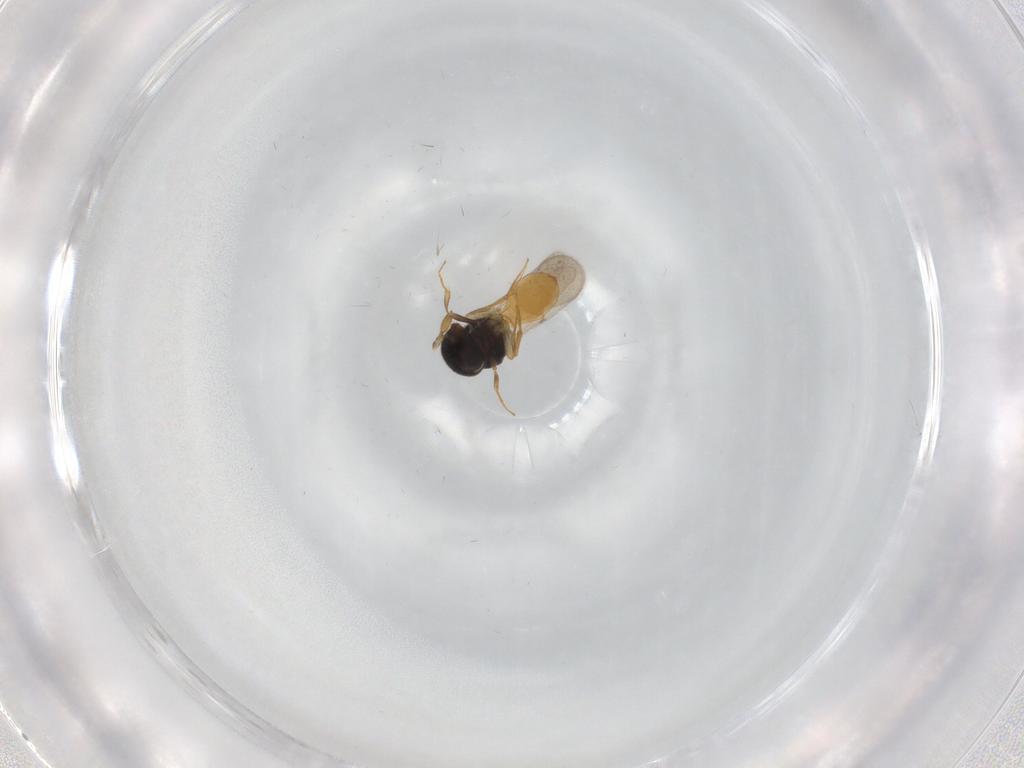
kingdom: Animalia
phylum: Arthropoda
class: Insecta
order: Hymenoptera
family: Scelionidae
